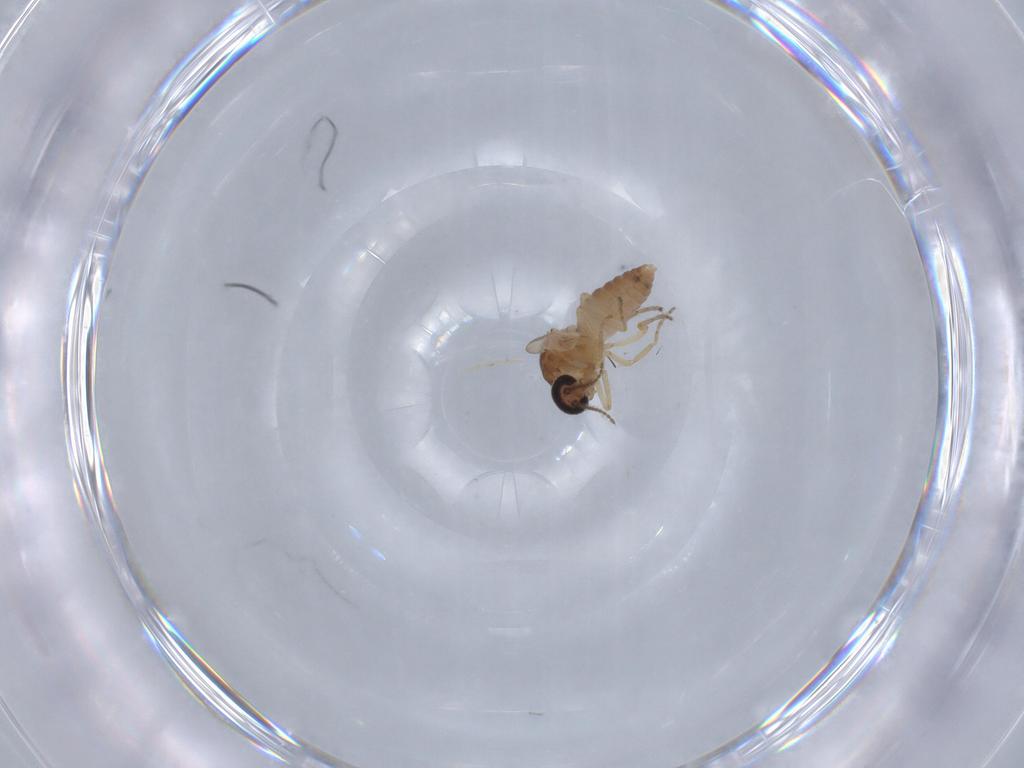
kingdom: Animalia
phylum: Arthropoda
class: Insecta
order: Diptera
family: Ceratopogonidae
